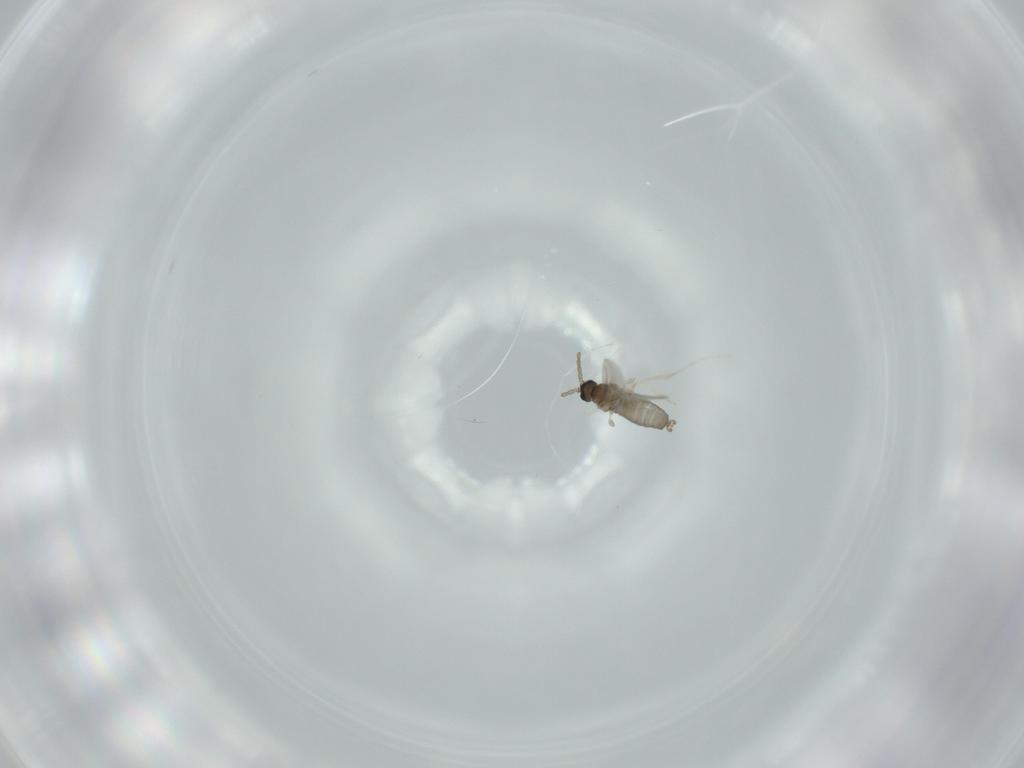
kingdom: Animalia
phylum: Arthropoda
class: Insecta
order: Diptera
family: Cecidomyiidae
